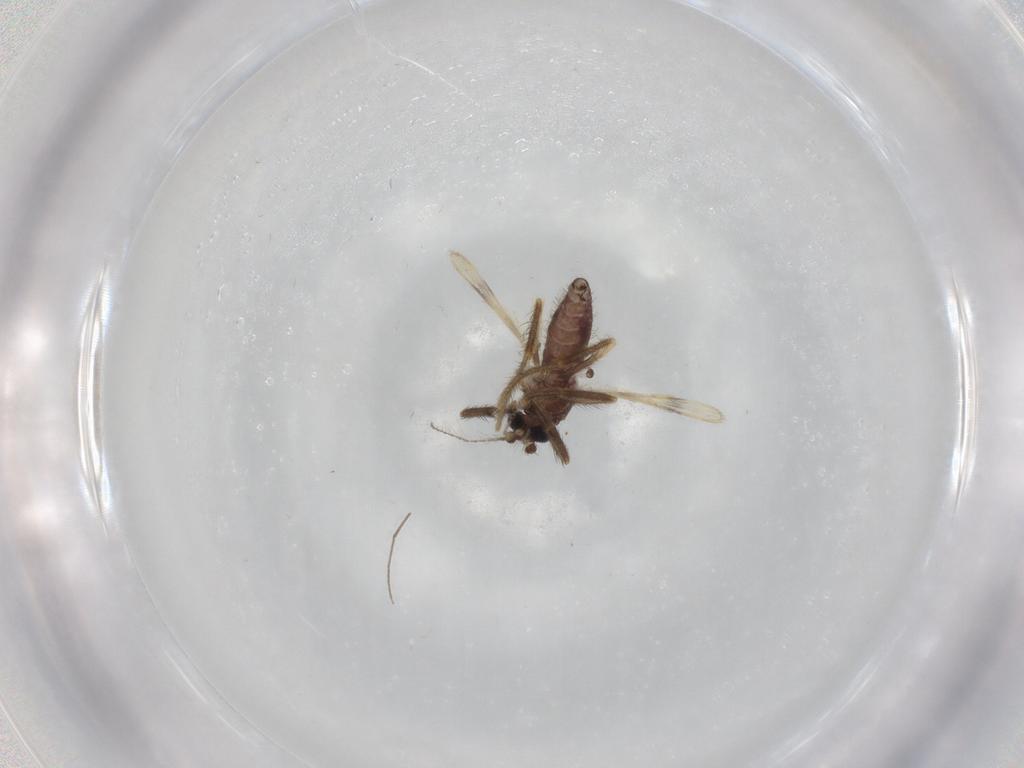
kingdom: Animalia
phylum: Arthropoda
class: Insecta
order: Diptera
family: Corethrellidae
